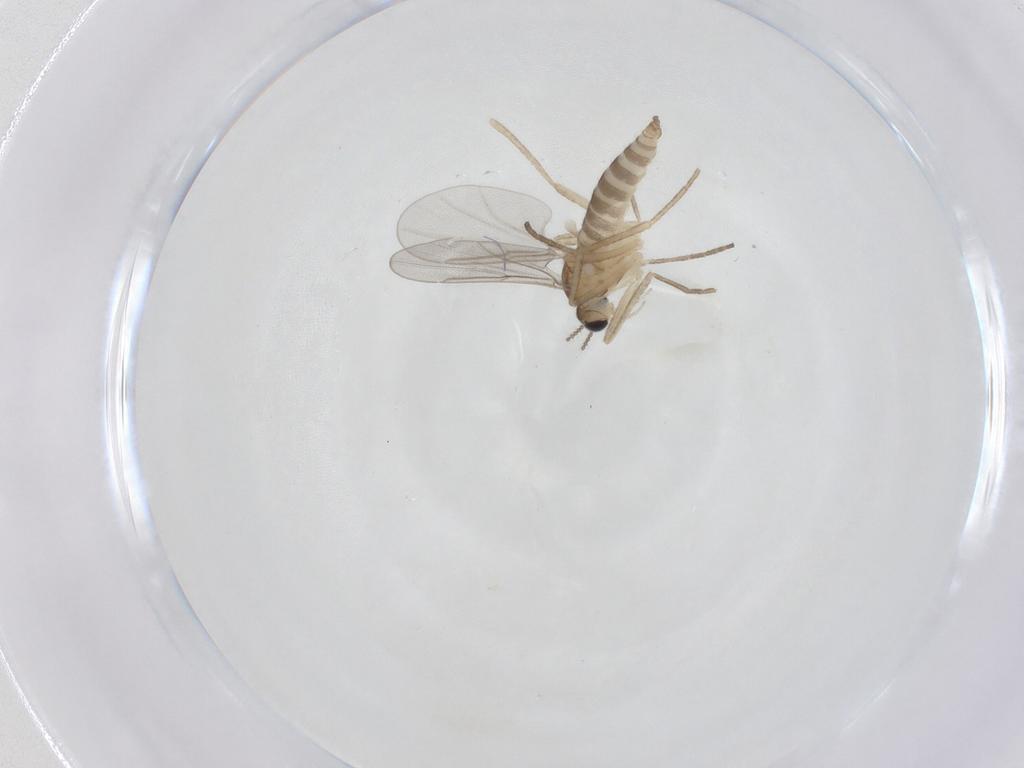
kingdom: Animalia
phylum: Arthropoda
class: Insecta
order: Diptera
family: Cecidomyiidae
